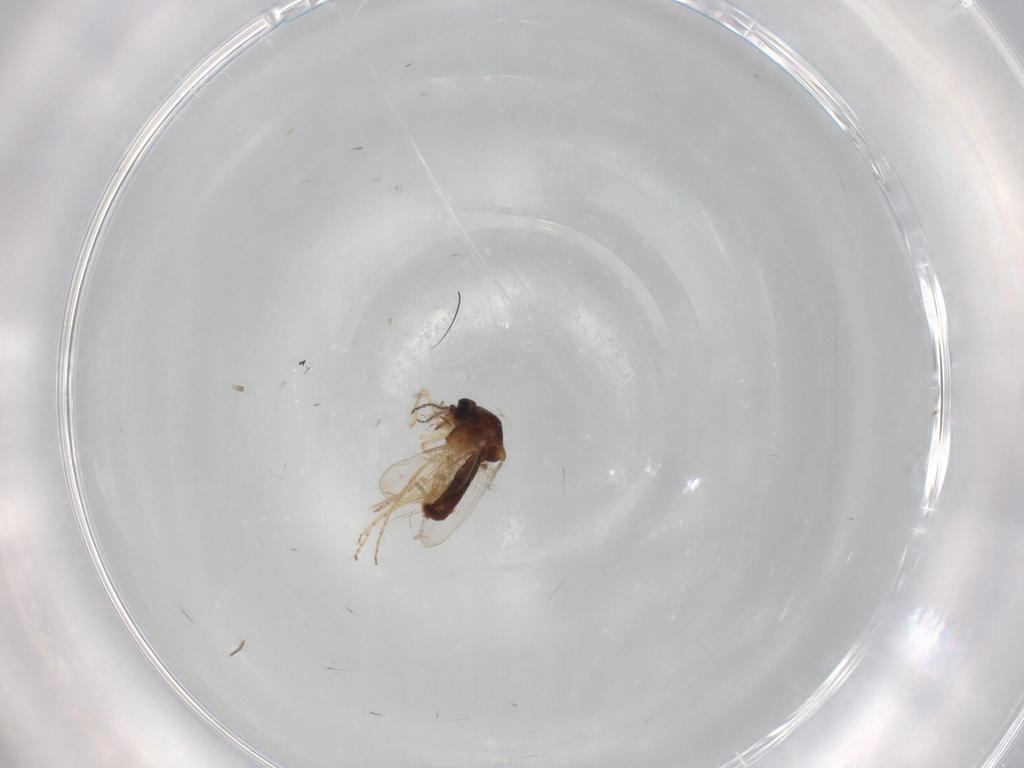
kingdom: Animalia
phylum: Arthropoda
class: Insecta
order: Diptera
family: Ceratopogonidae
